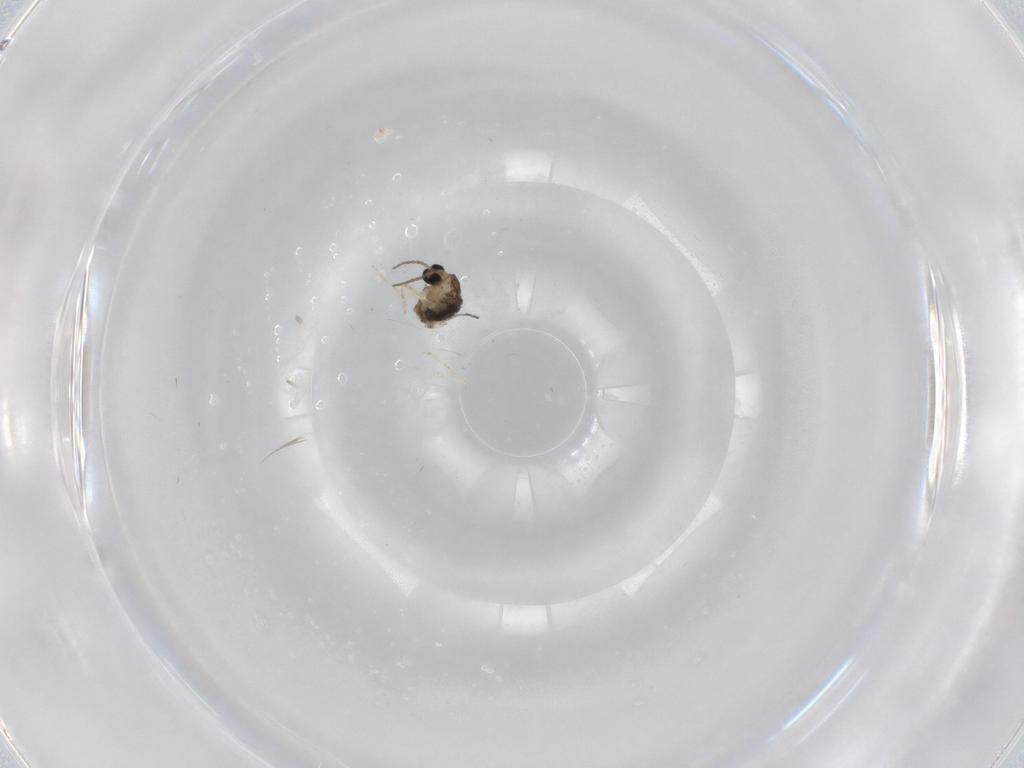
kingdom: Animalia
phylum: Arthropoda
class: Insecta
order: Diptera
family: Cecidomyiidae
